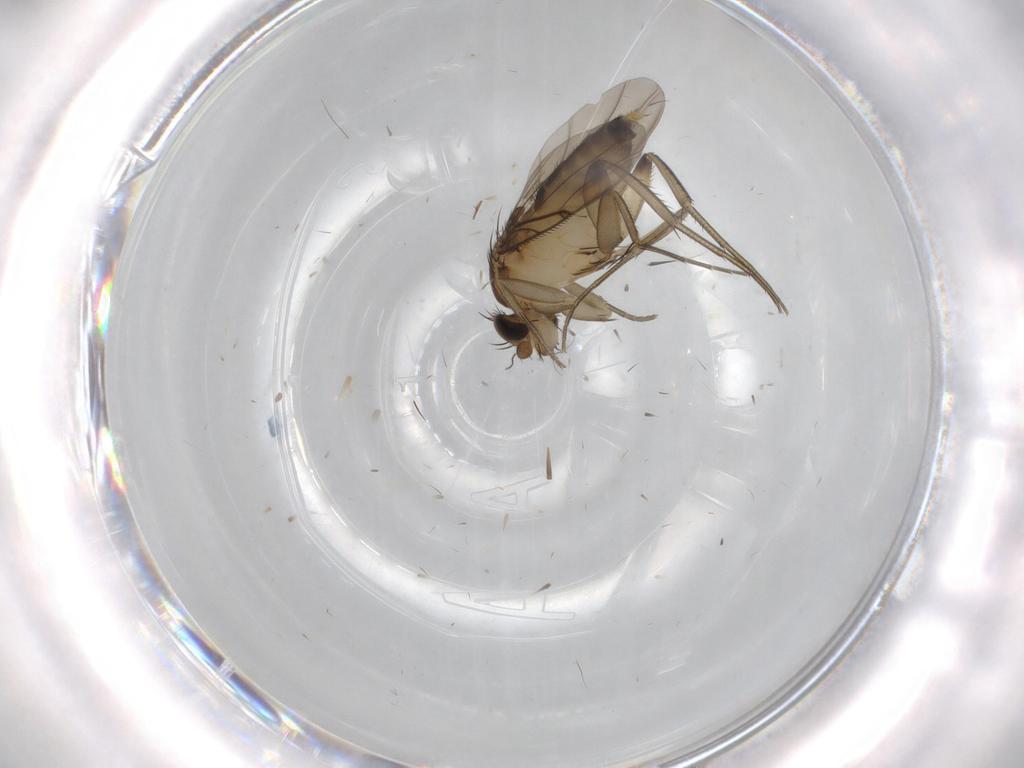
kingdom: Animalia
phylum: Arthropoda
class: Insecta
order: Diptera
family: Phoridae
